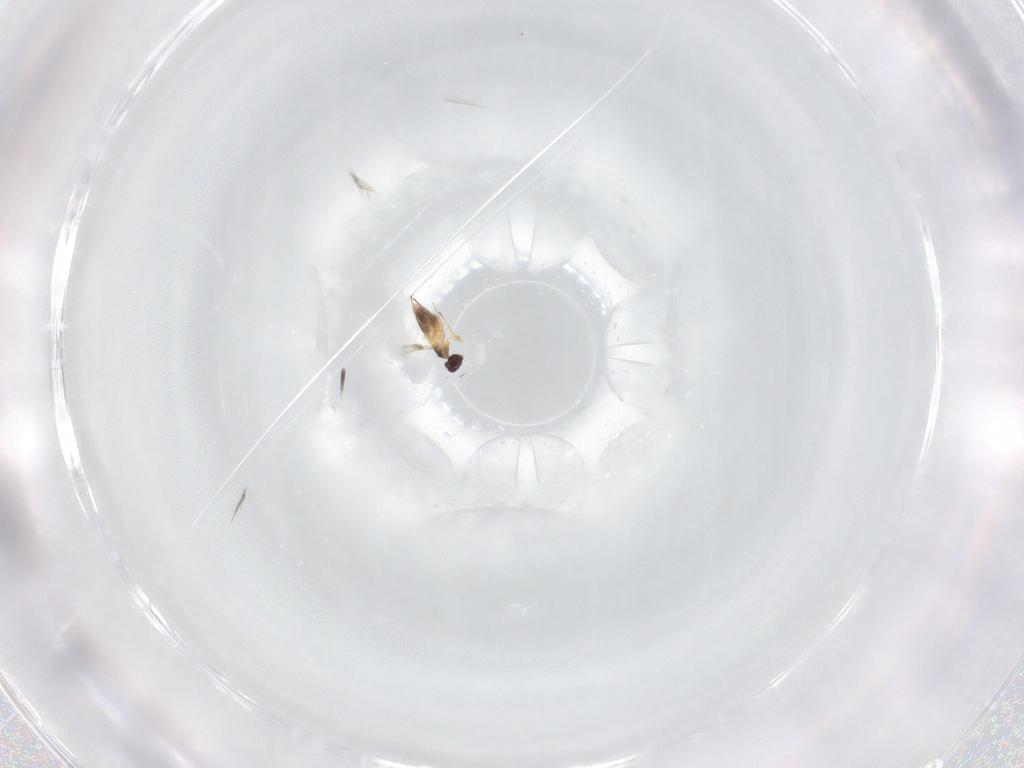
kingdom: Animalia
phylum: Arthropoda
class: Insecta
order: Hymenoptera
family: Mymaridae
